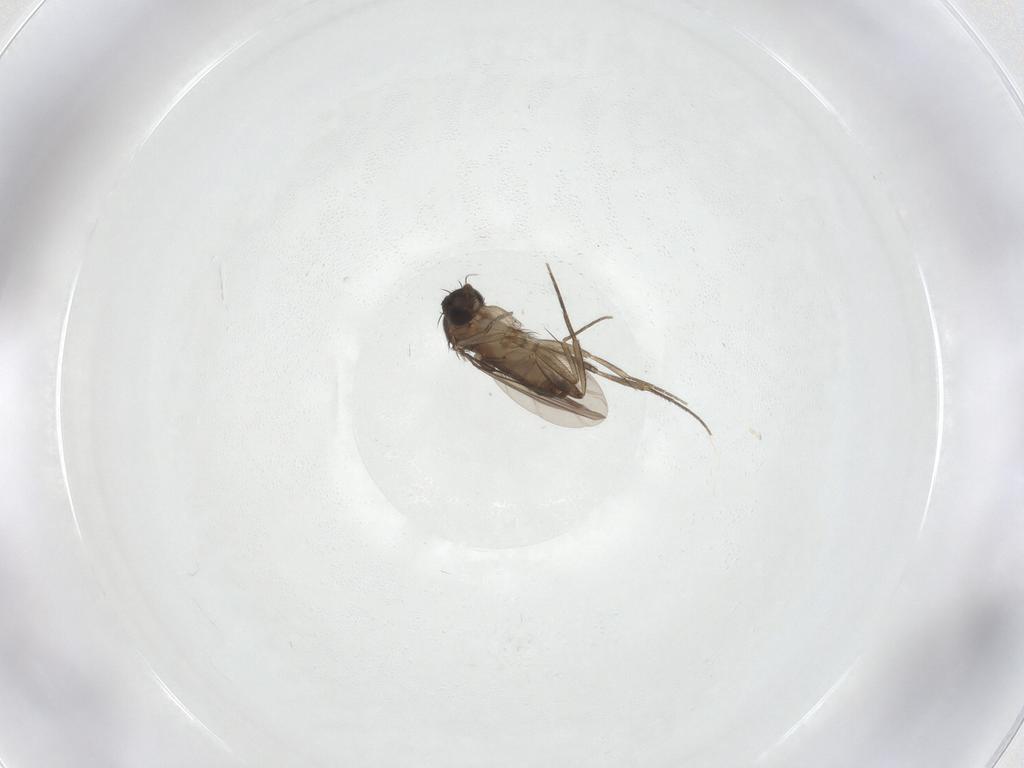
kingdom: Animalia
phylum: Arthropoda
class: Insecta
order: Diptera
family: Phoridae
